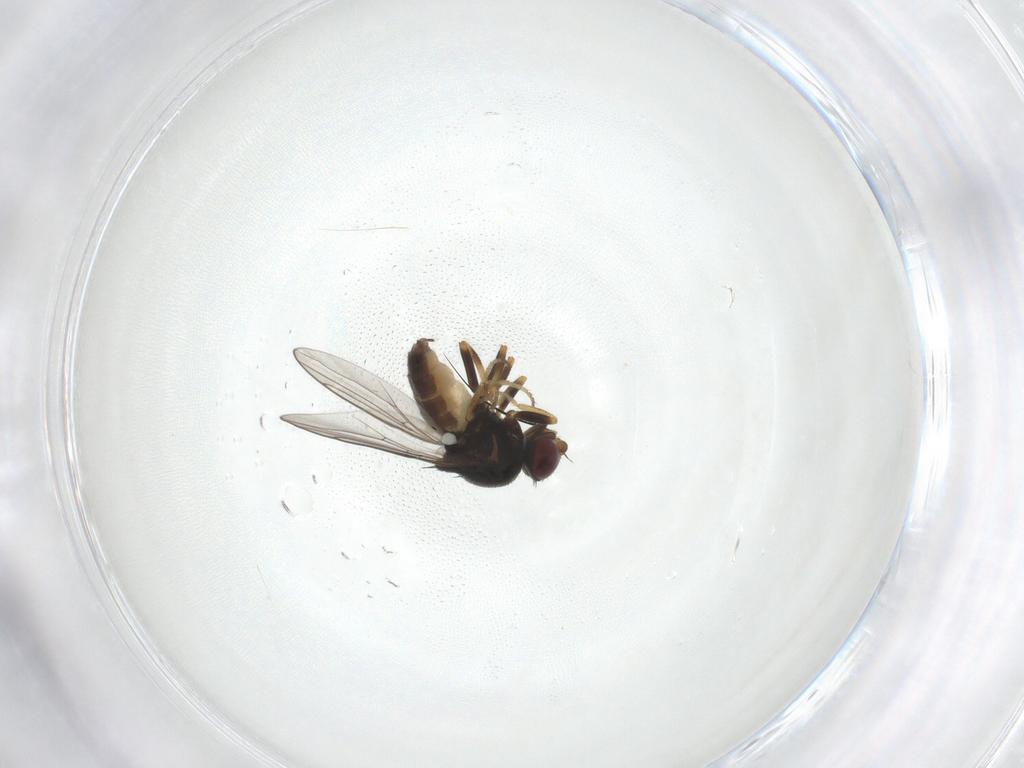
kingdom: Animalia
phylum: Arthropoda
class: Insecta
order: Diptera
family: Chloropidae
